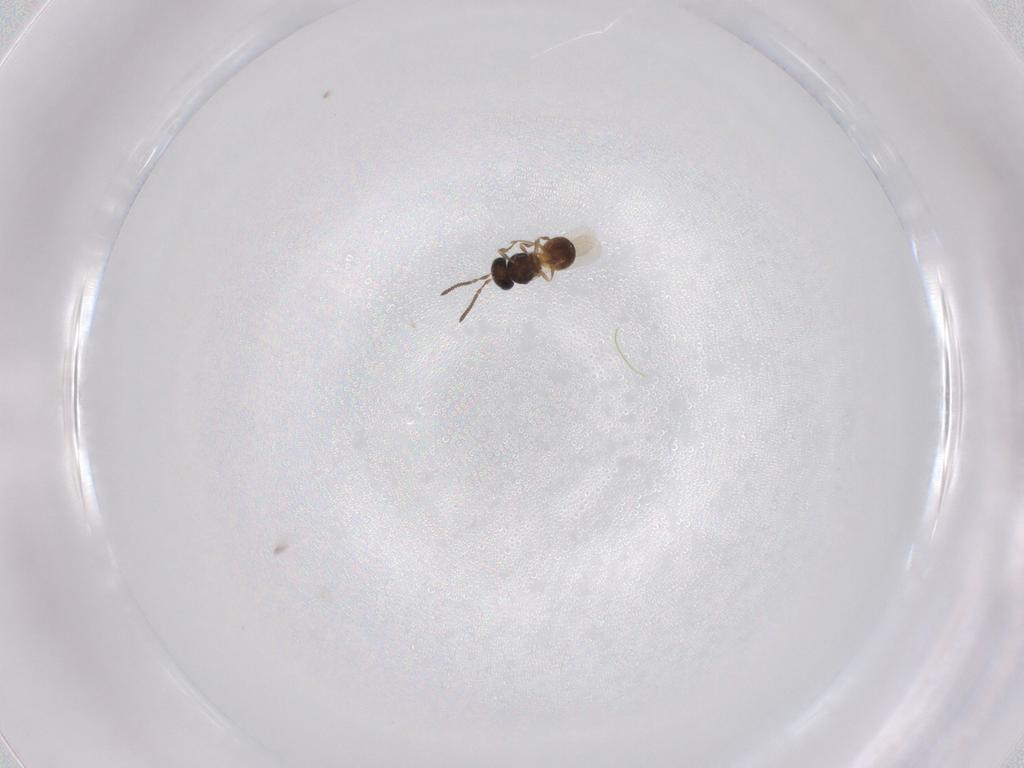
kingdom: Animalia
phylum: Arthropoda
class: Insecta
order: Hymenoptera
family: Scelionidae
